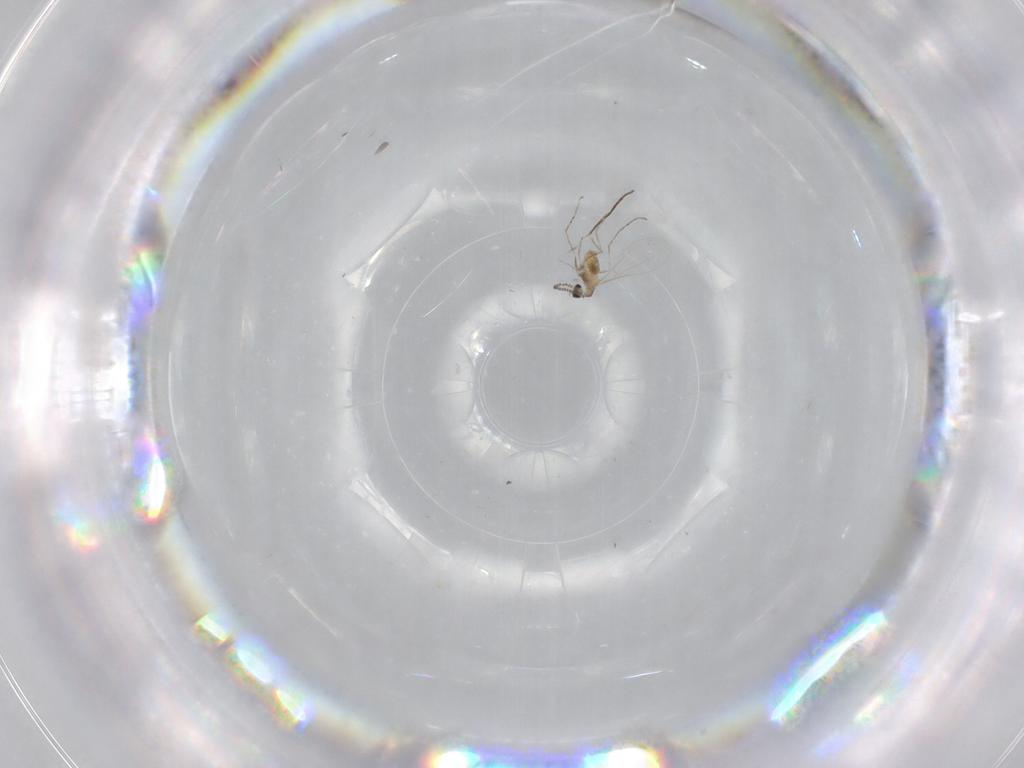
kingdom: Animalia
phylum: Arthropoda
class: Insecta
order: Diptera
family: Cecidomyiidae
